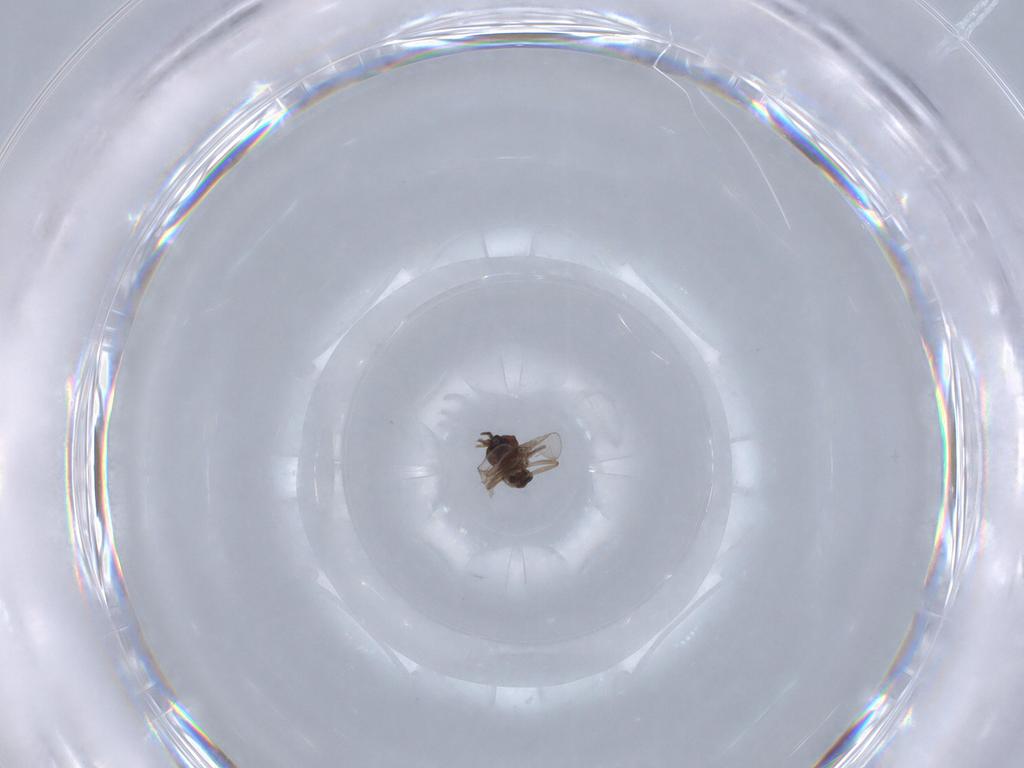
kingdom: Animalia
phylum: Arthropoda
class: Insecta
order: Diptera
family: Ceratopogonidae
